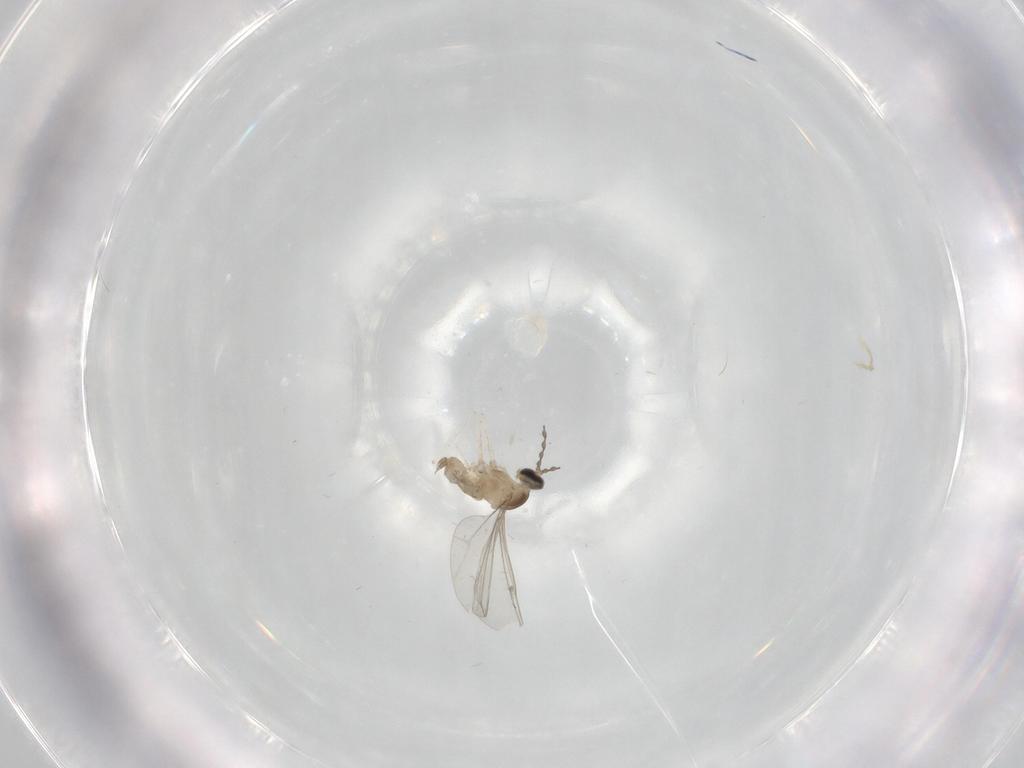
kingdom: Animalia
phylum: Arthropoda
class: Insecta
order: Diptera
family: Cecidomyiidae
